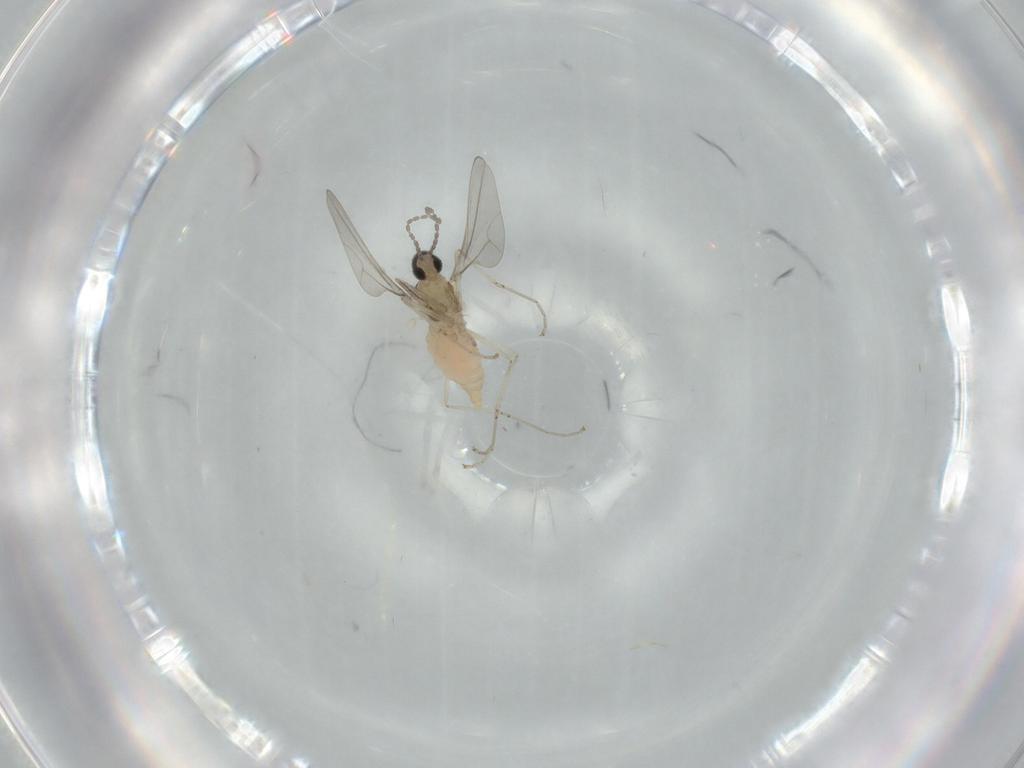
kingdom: Animalia
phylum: Arthropoda
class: Insecta
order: Diptera
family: Cecidomyiidae
